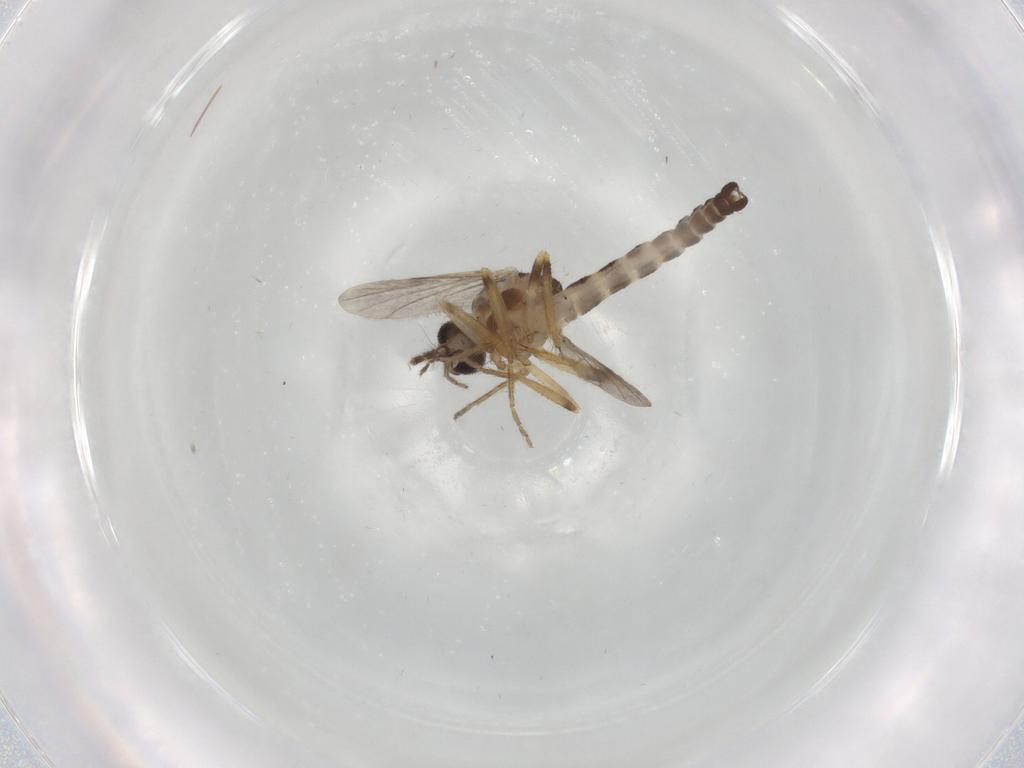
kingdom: Animalia
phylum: Arthropoda
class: Insecta
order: Diptera
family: Ceratopogonidae
